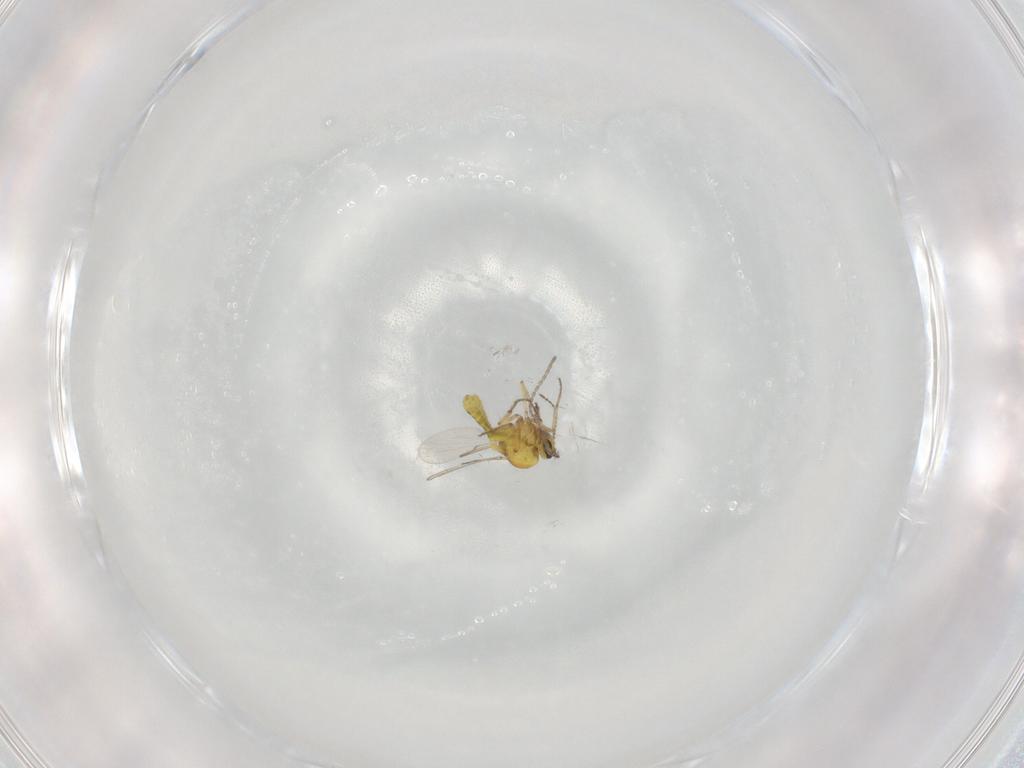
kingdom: Animalia
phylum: Arthropoda
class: Insecta
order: Diptera
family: Ceratopogonidae
